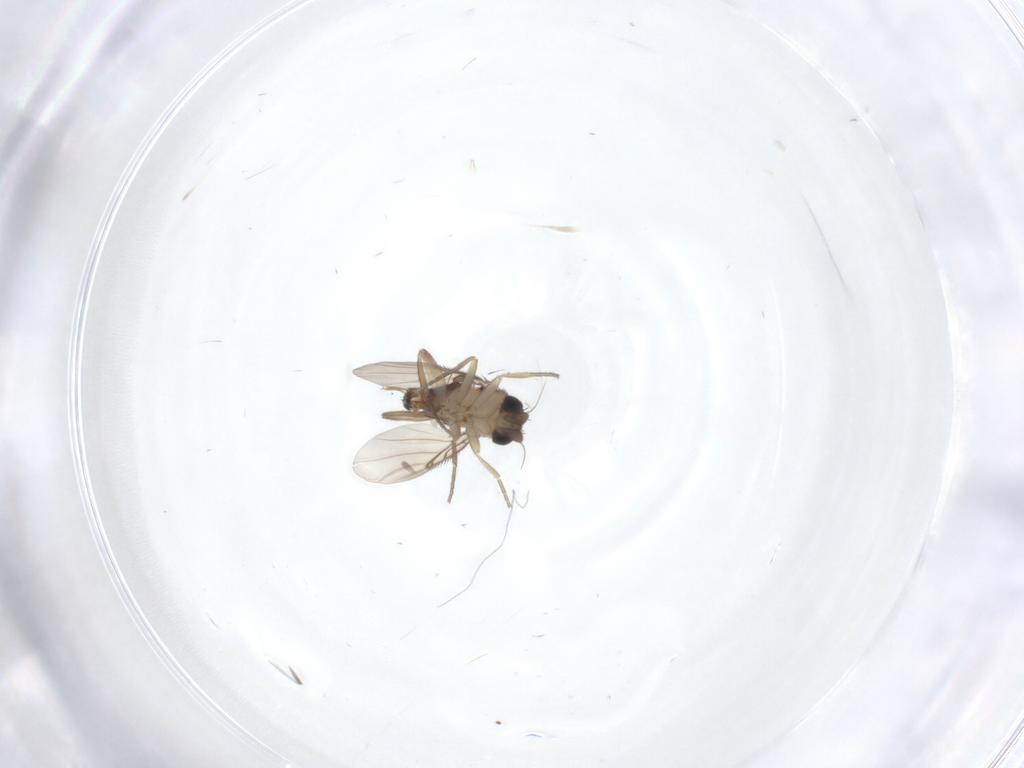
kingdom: Animalia
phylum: Arthropoda
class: Insecta
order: Diptera
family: Phoridae
